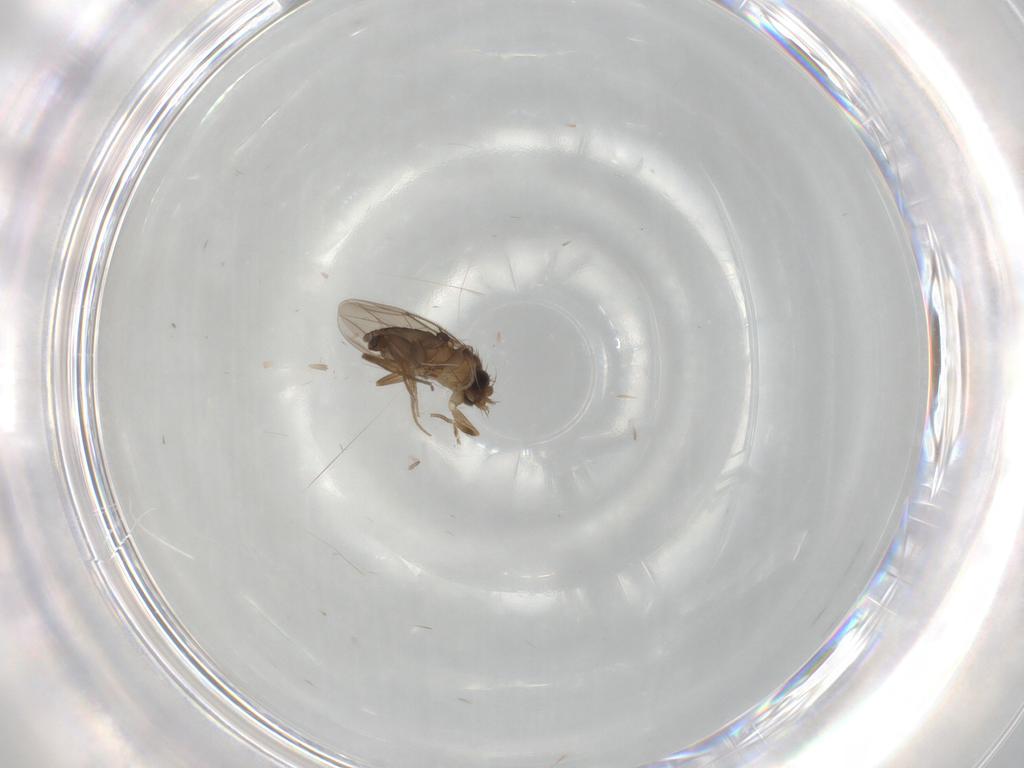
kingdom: Animalia
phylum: Arthropoda
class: Insecta
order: Diptera
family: Phoridae
